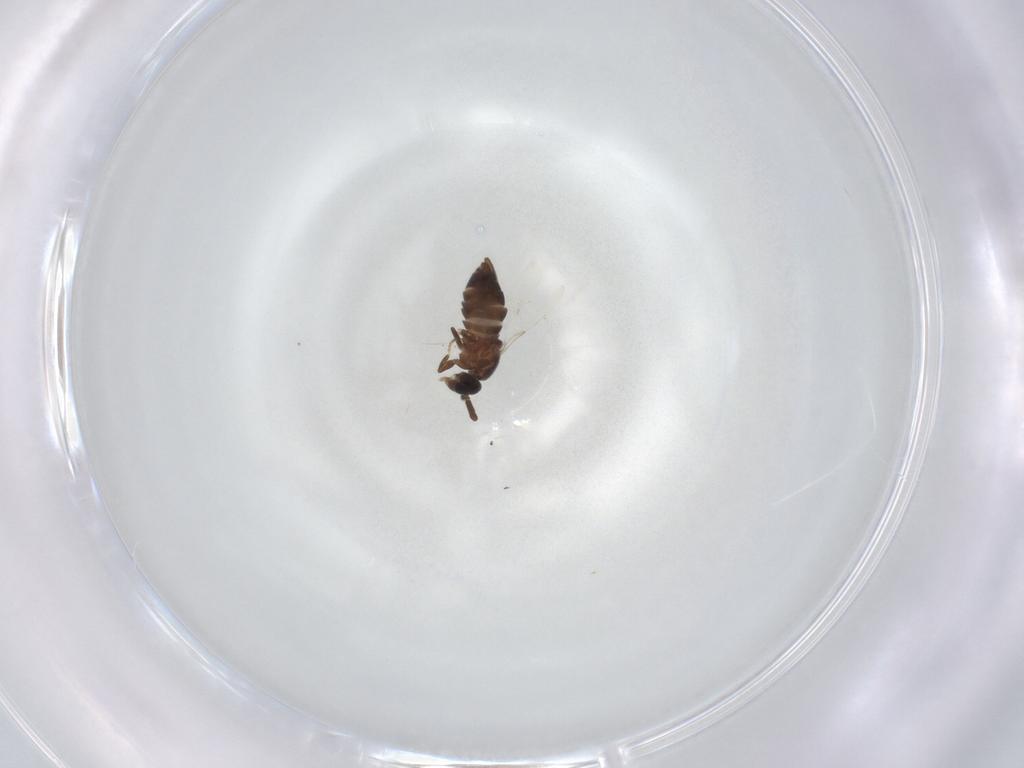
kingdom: Animalia
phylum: Arthropoda
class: Insecta
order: Diptera
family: Scatopsidae
